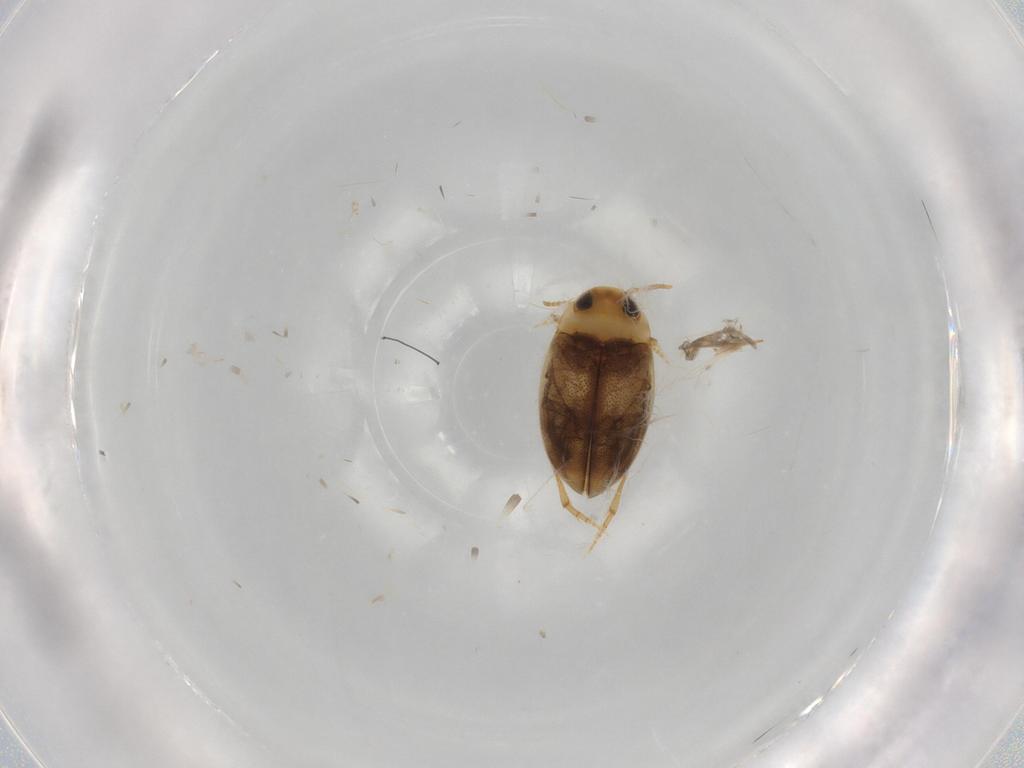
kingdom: Animalia
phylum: Arthropoda
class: Insecta
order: Coleoptera
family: Dytiscidae
